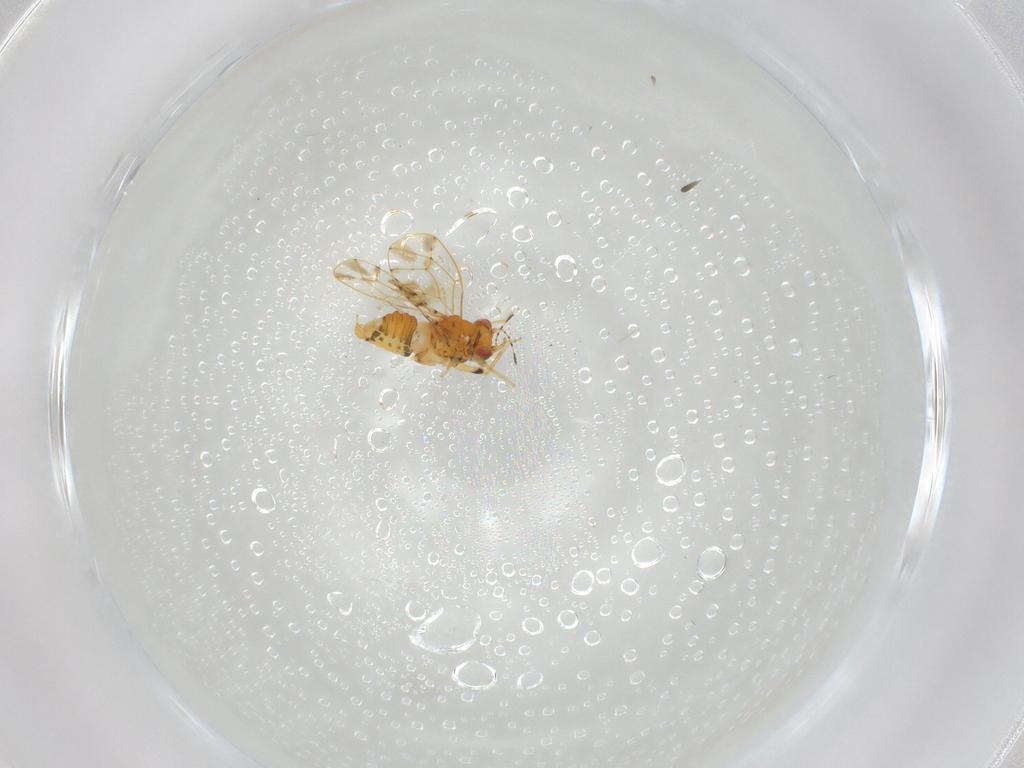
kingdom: Animalia
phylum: Arthropoda
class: Insecta
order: Hemiptera
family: Cicadellidae
